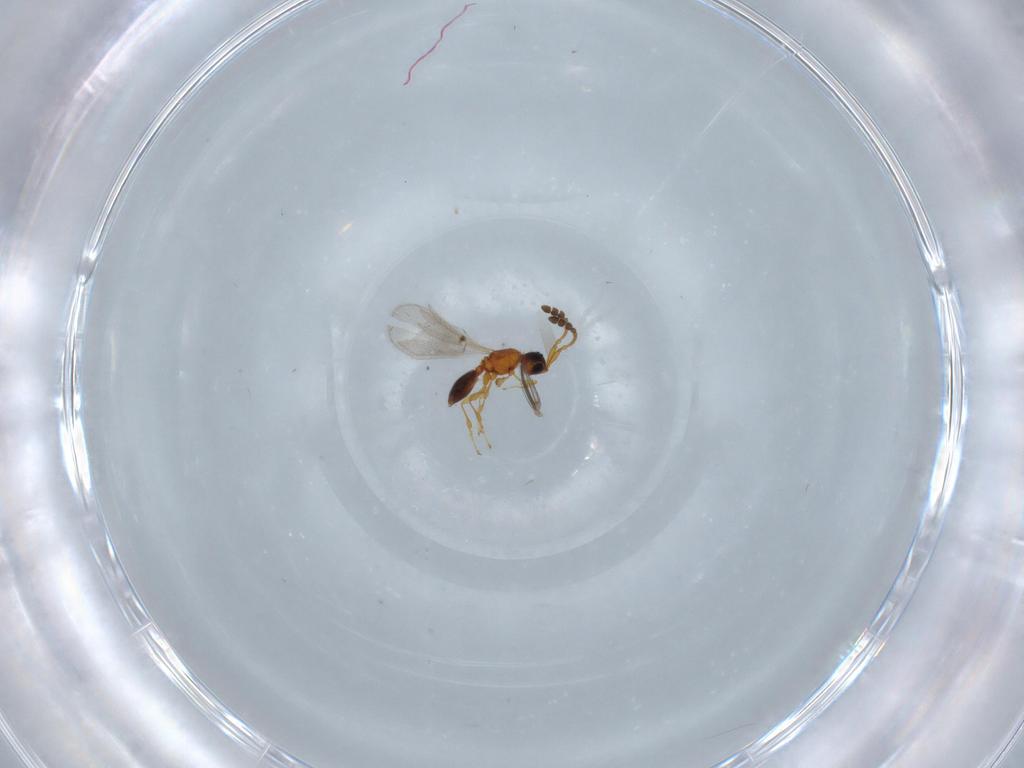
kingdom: Animalia
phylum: Arthropoda
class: Insecta
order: Hymenoptera
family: Diapriidae
